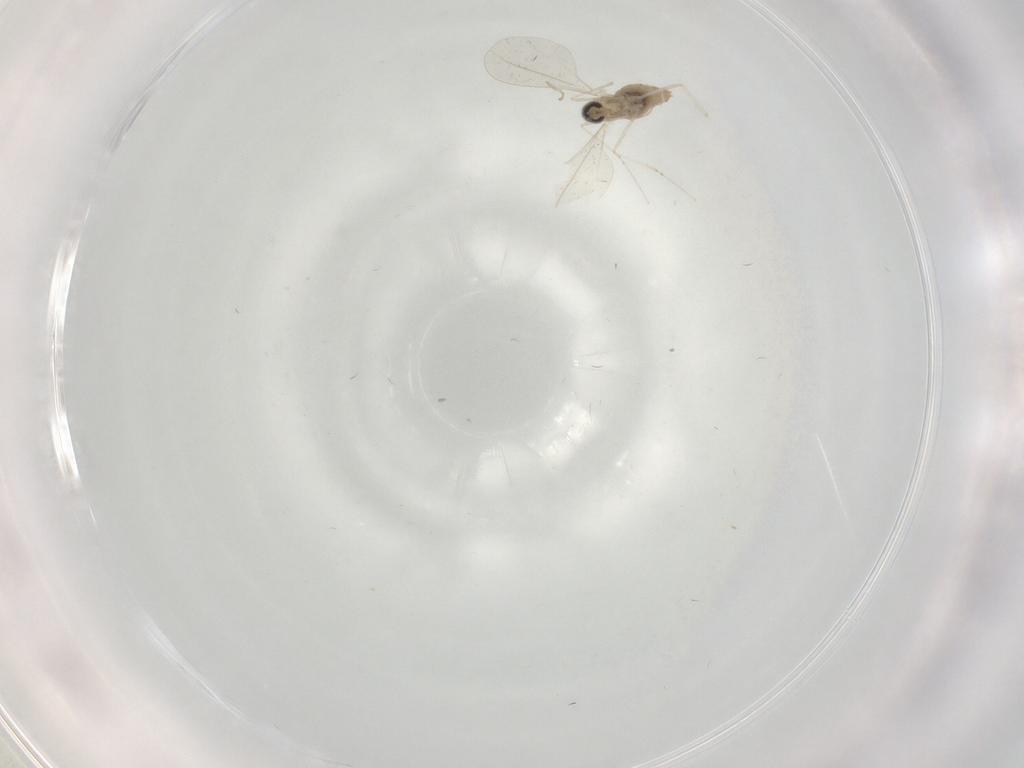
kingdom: Animalia
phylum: Arthropoda
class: Insecta
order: Diptera
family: Cecidomyiidae
